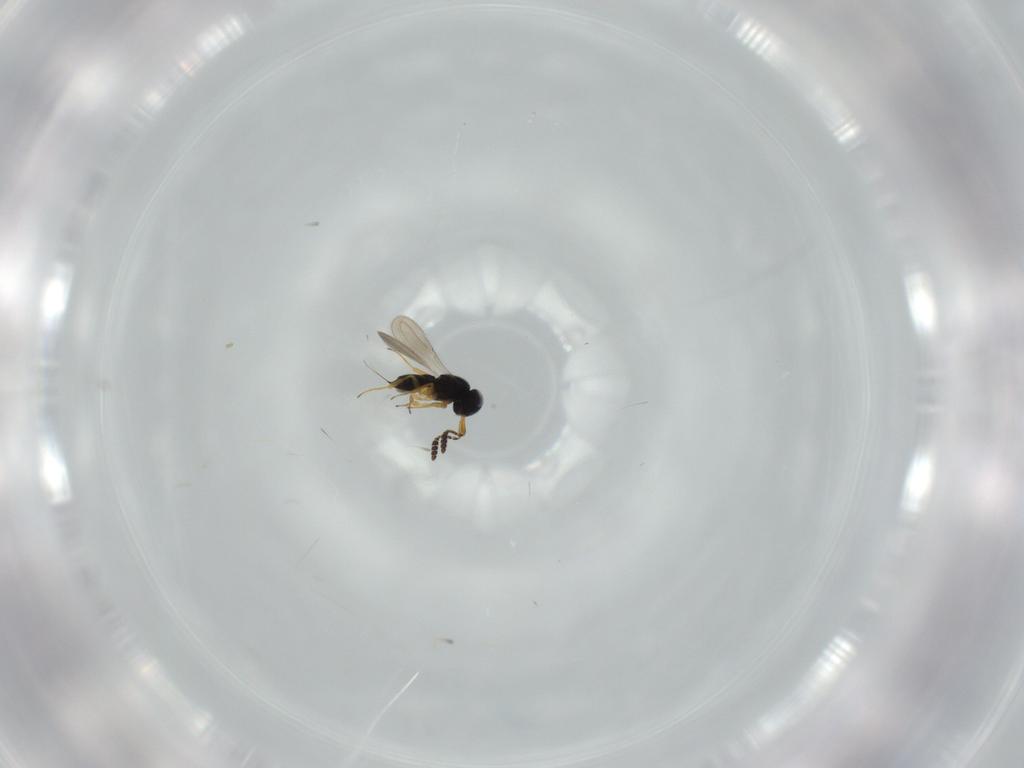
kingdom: Animalia
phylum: Arthropoda
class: Insecta
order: Hymenoptera
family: Scelionidae
